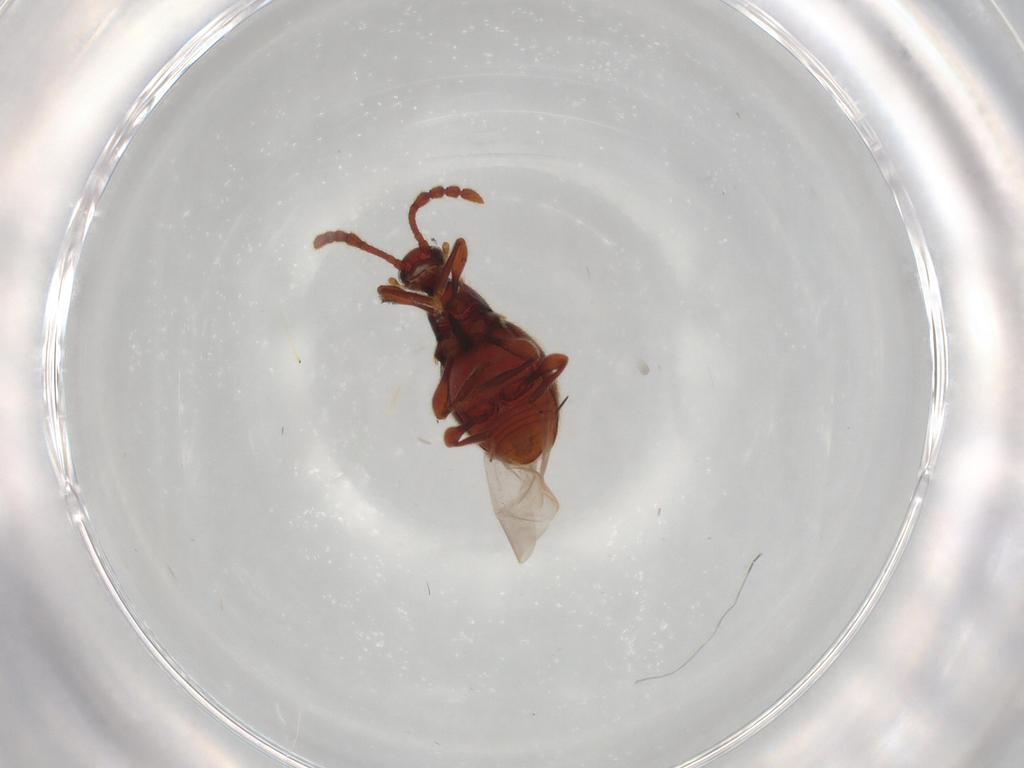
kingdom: Animalia
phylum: Arthropoda
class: Insecta
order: Coleoptera
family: Staphylinidae
